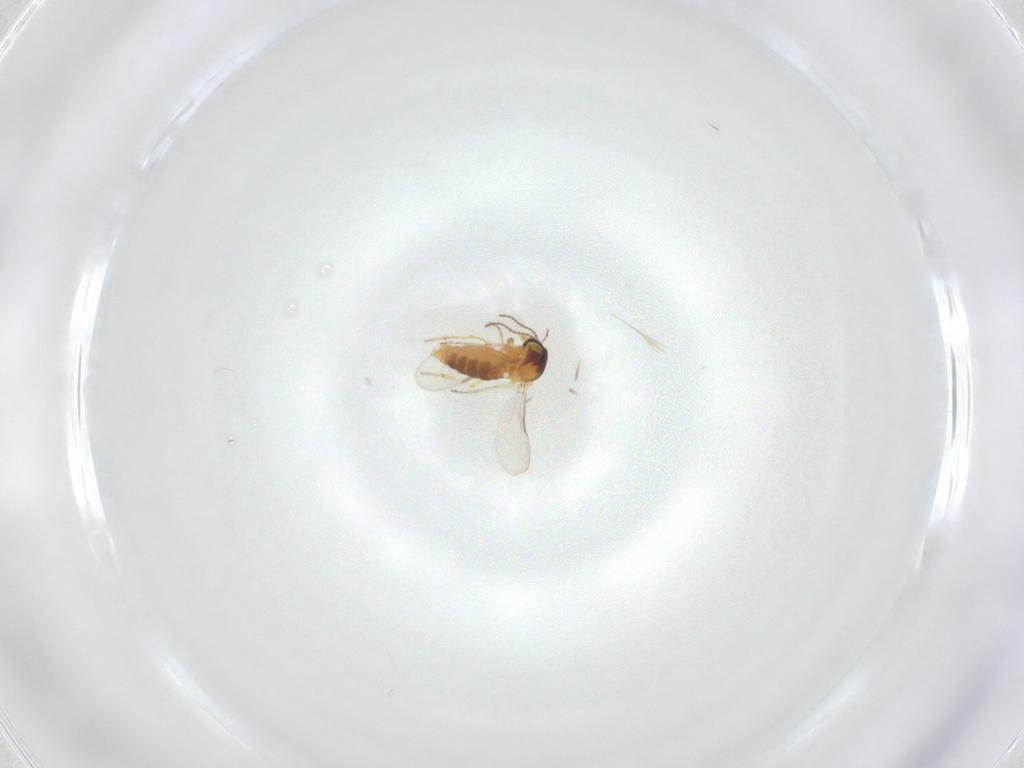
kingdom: Animalia
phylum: Arthropoda
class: Insecta
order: Diptera
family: Ceratopogonidae
